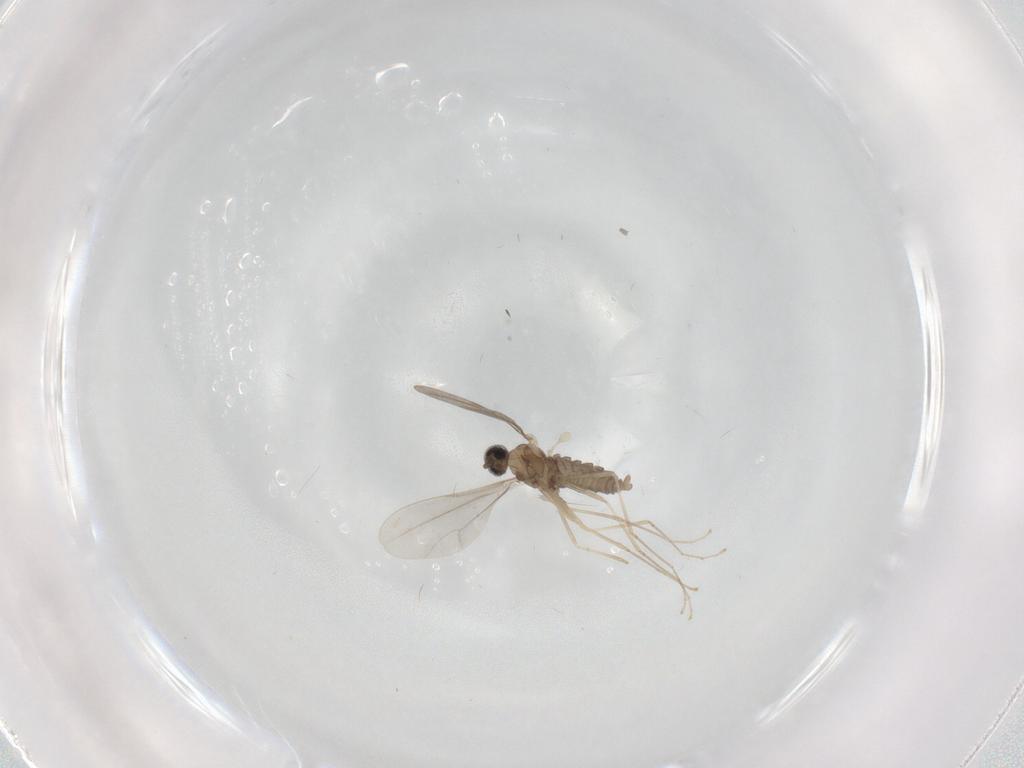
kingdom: Animalia
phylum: Arthropoda
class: Insecta
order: Diptera
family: Cecidomyiidae
